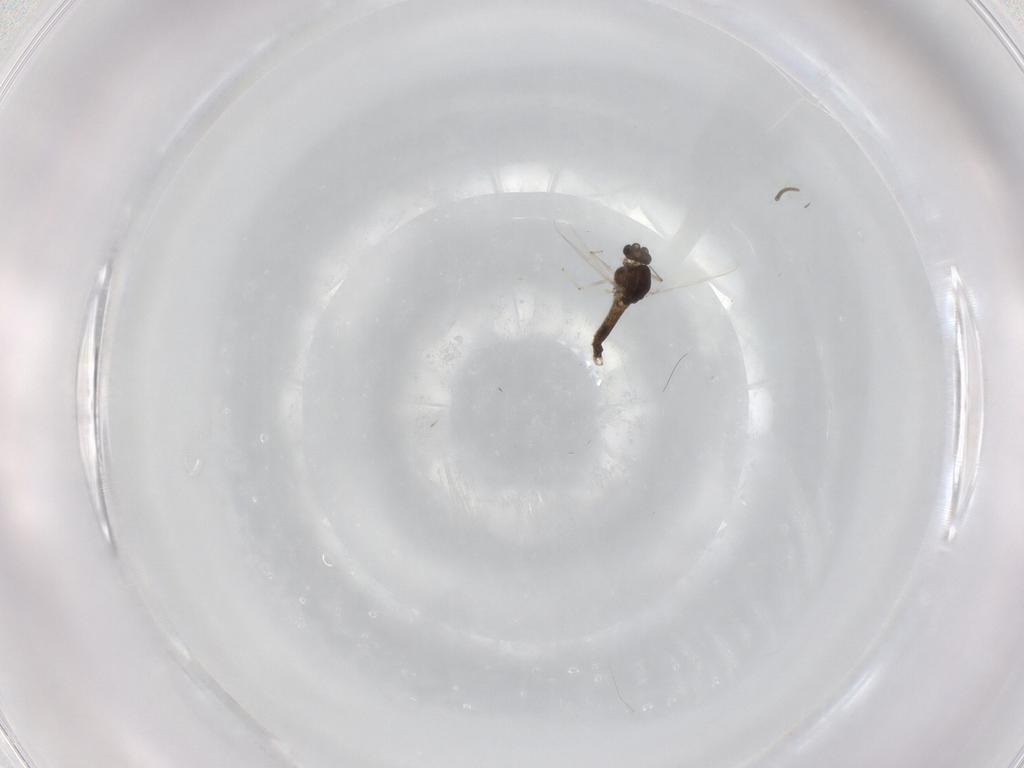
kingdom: Animalia
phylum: Arthropoda
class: Insecta
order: Diptera
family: Chironomidae
